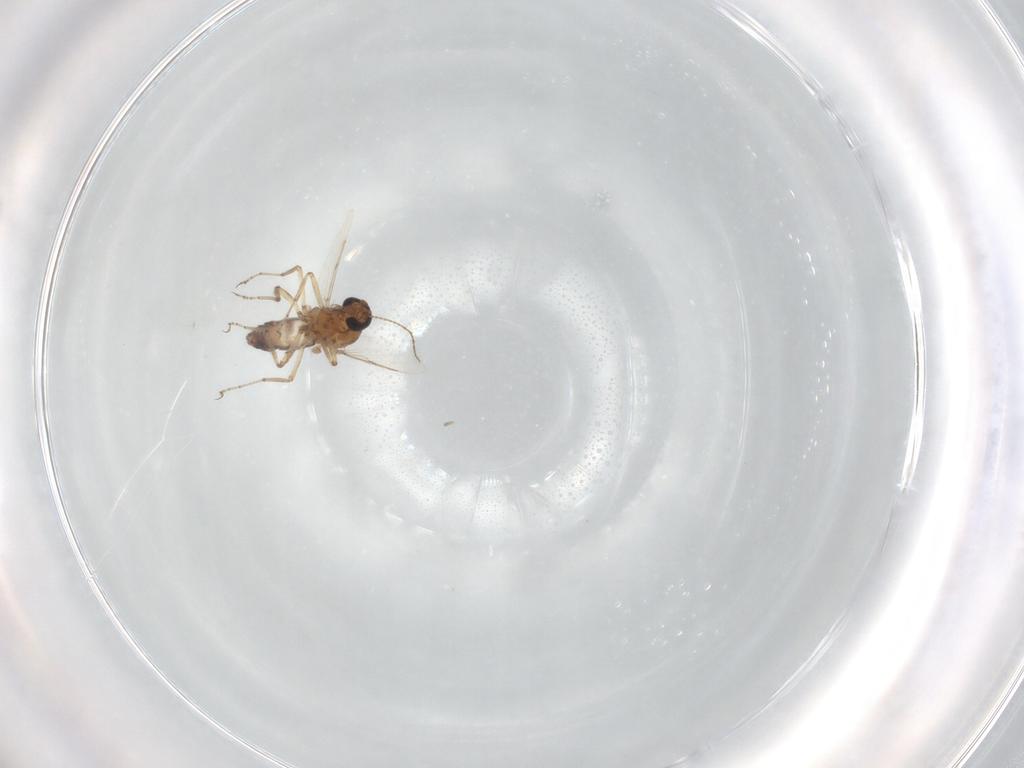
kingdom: Animalia
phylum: Arthropoda
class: Insecta
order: Diptera
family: Ceratopogonidae
